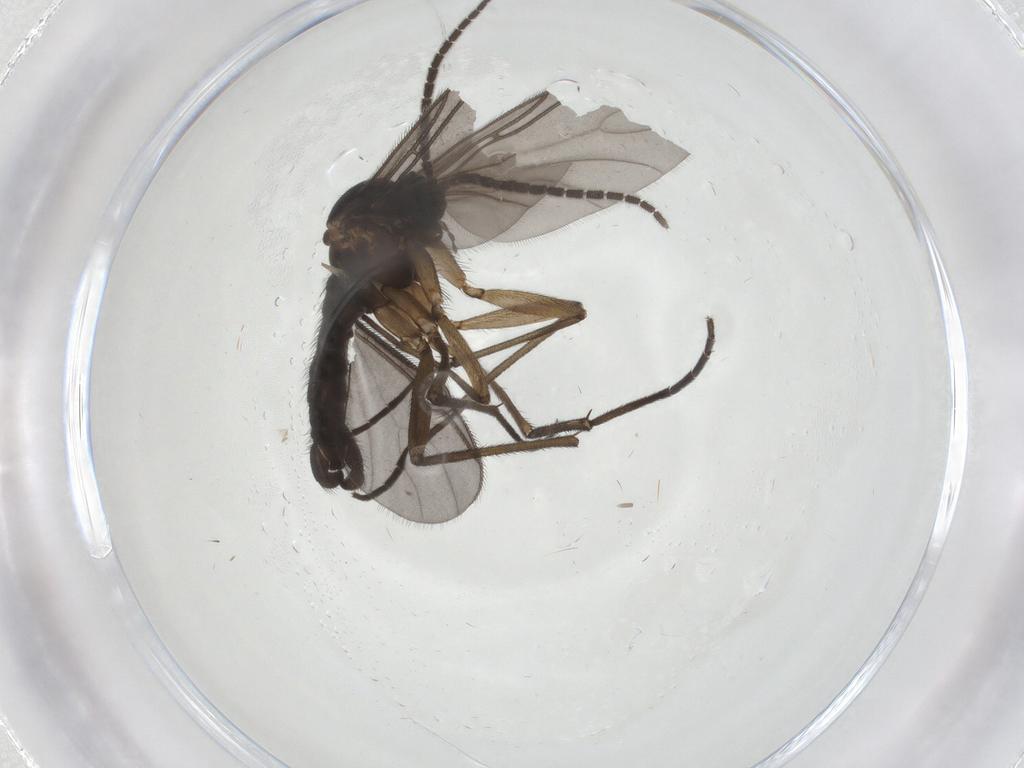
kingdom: Animalia
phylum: Arthropoda
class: Insecta
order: Diptera
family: Sciaridae
